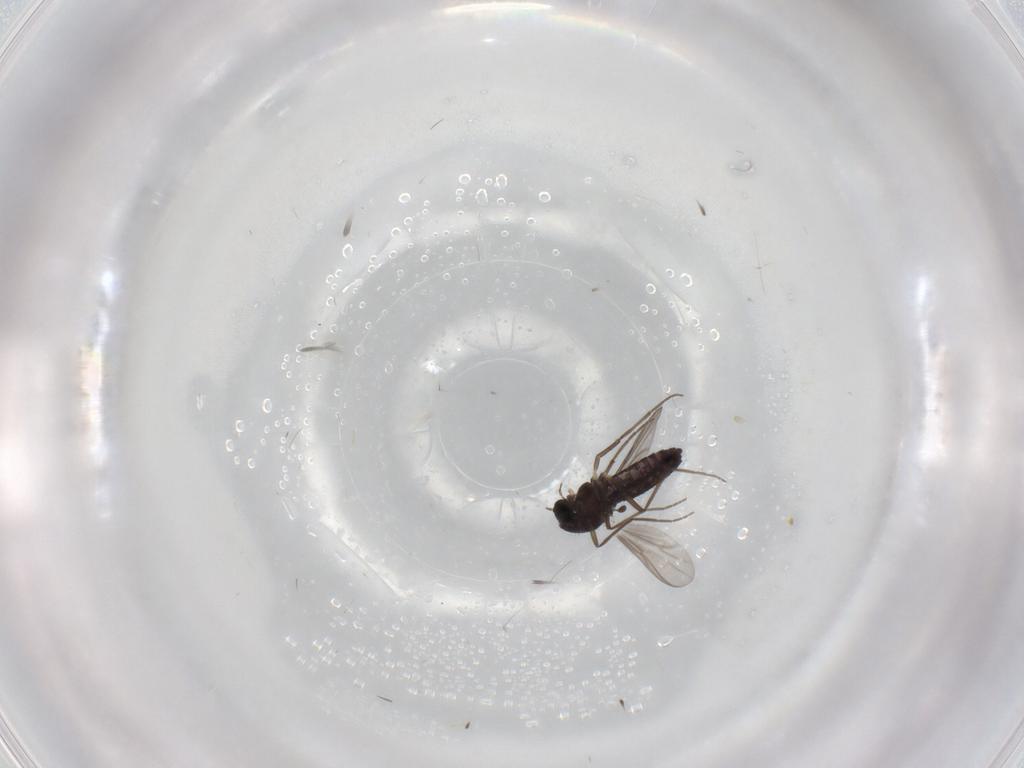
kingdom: Animalia
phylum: Arthropoda
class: Insecta
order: Diptera
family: Chironomidae
